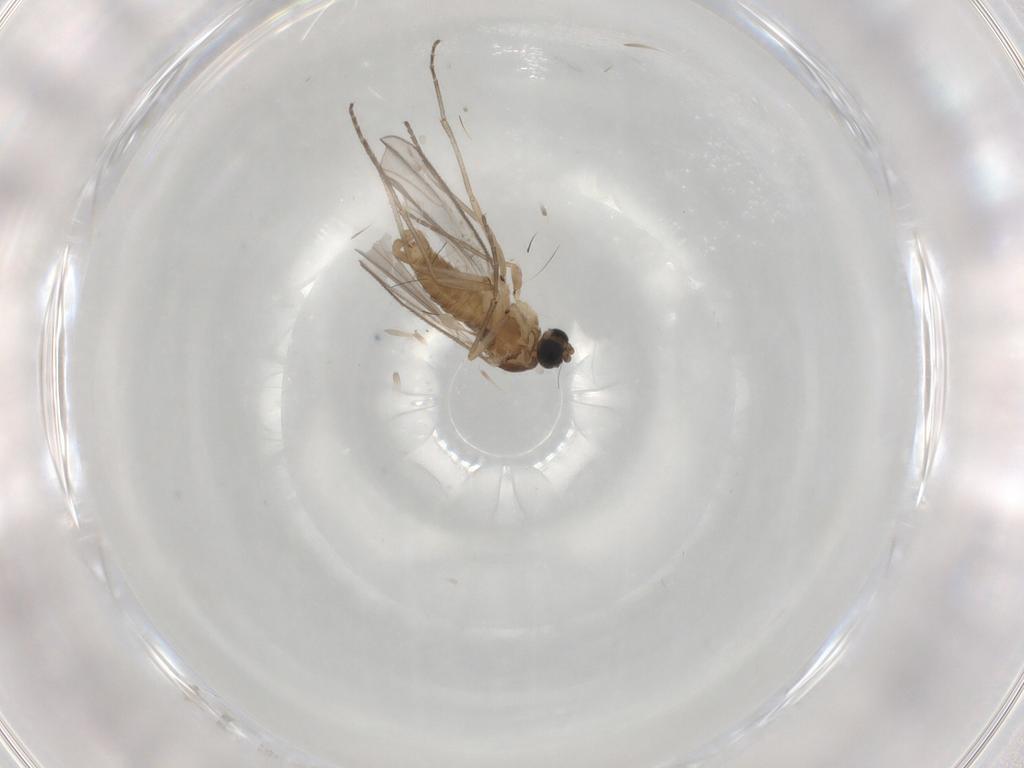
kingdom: Animalia
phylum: Arthropoda
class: Insecta
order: Diptera
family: Sciaridae
